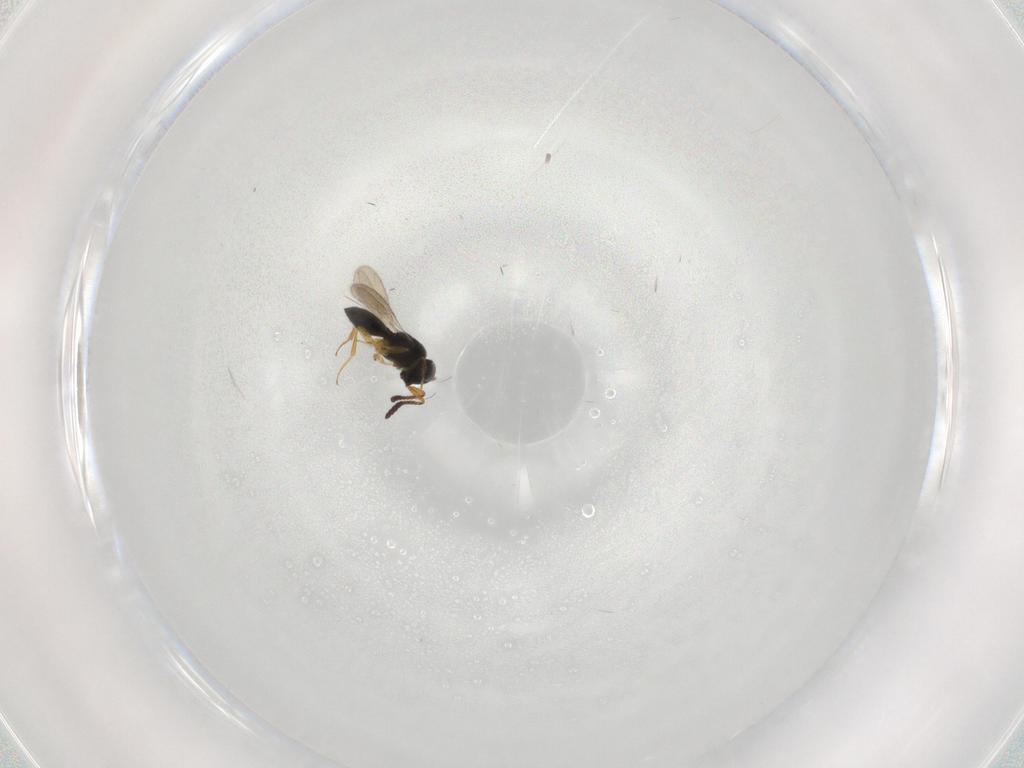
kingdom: Animalia
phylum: Arthropoda
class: Insecta
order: Hymenoptera
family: Scelionidae
